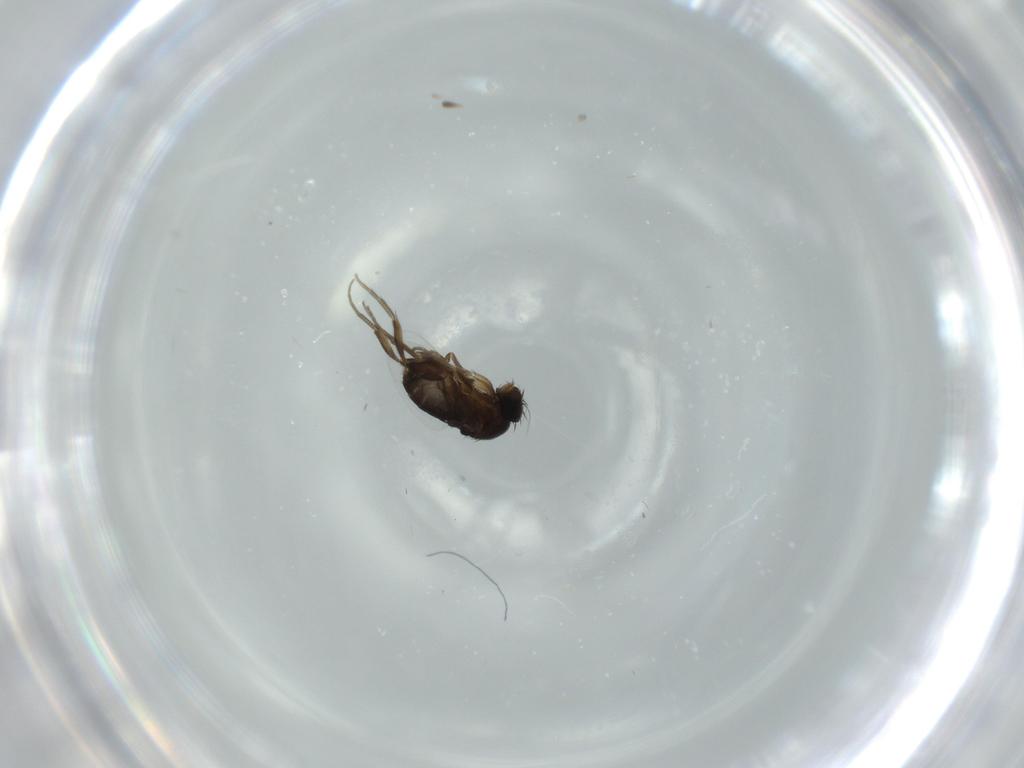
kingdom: Animalia
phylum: Arthropoda
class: Insecta
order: Diptera
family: Phoridae
